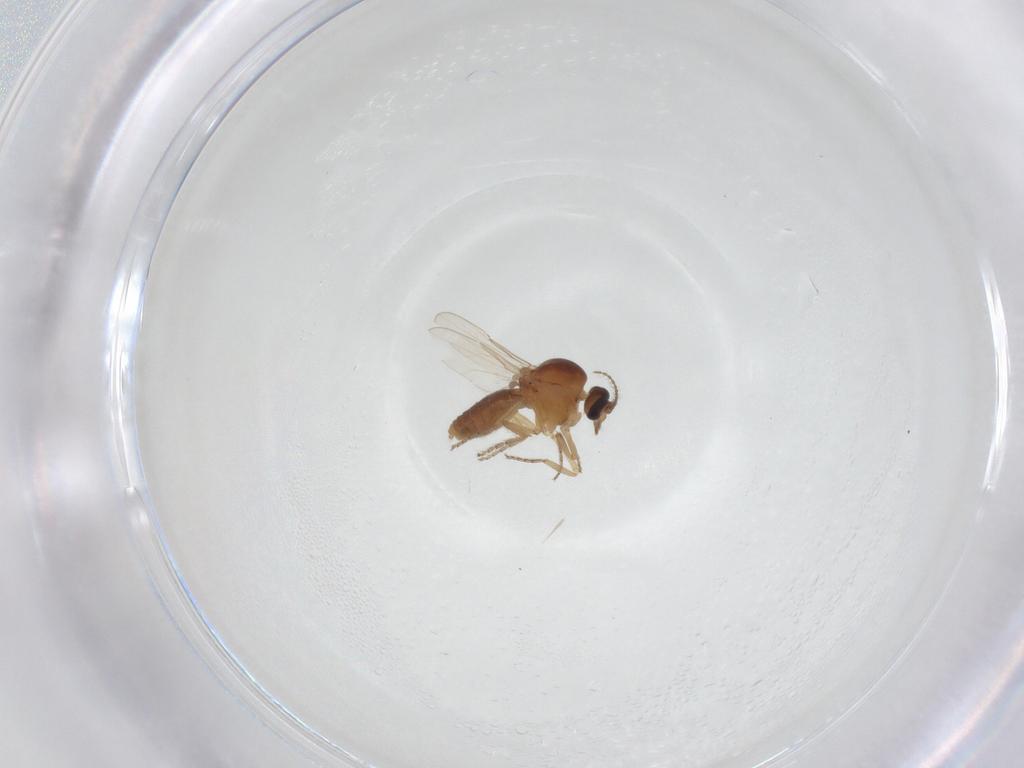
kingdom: Animalia
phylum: Arthropoda
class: Insecta
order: Diptera
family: Ceratopogonidae
